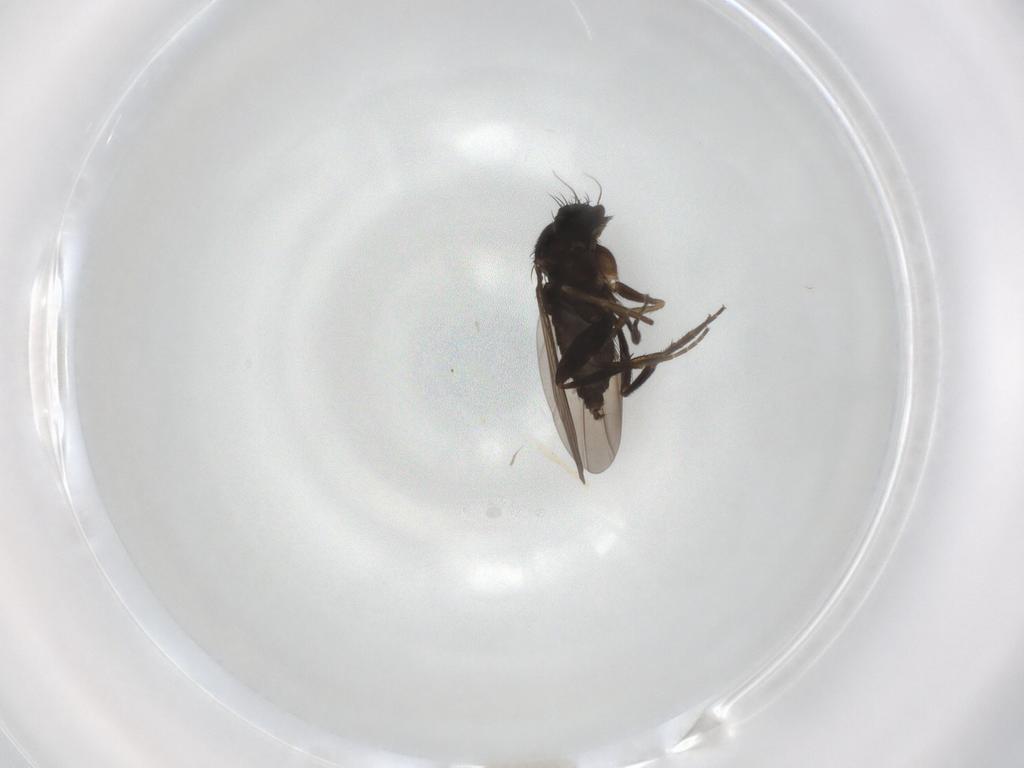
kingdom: Animalia
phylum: Arthropoda
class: Insecta
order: Diptera
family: Phoridae
